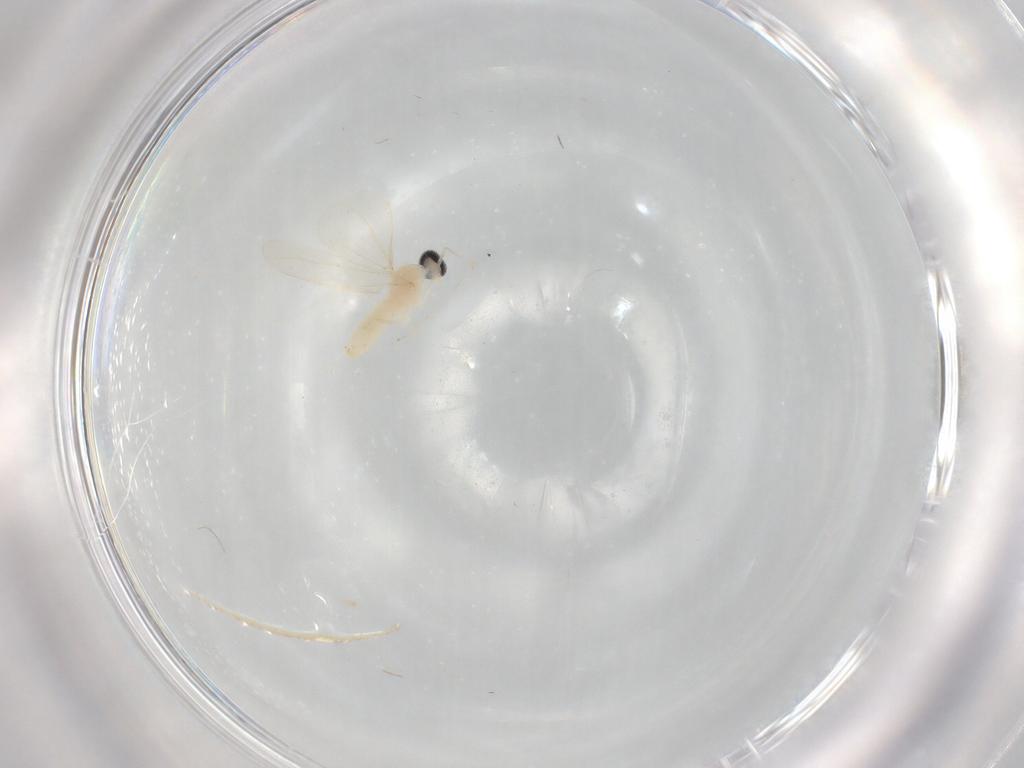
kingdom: Animalia
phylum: Arthropoda
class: Insecta
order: Diptera
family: Cecidomyiidae
